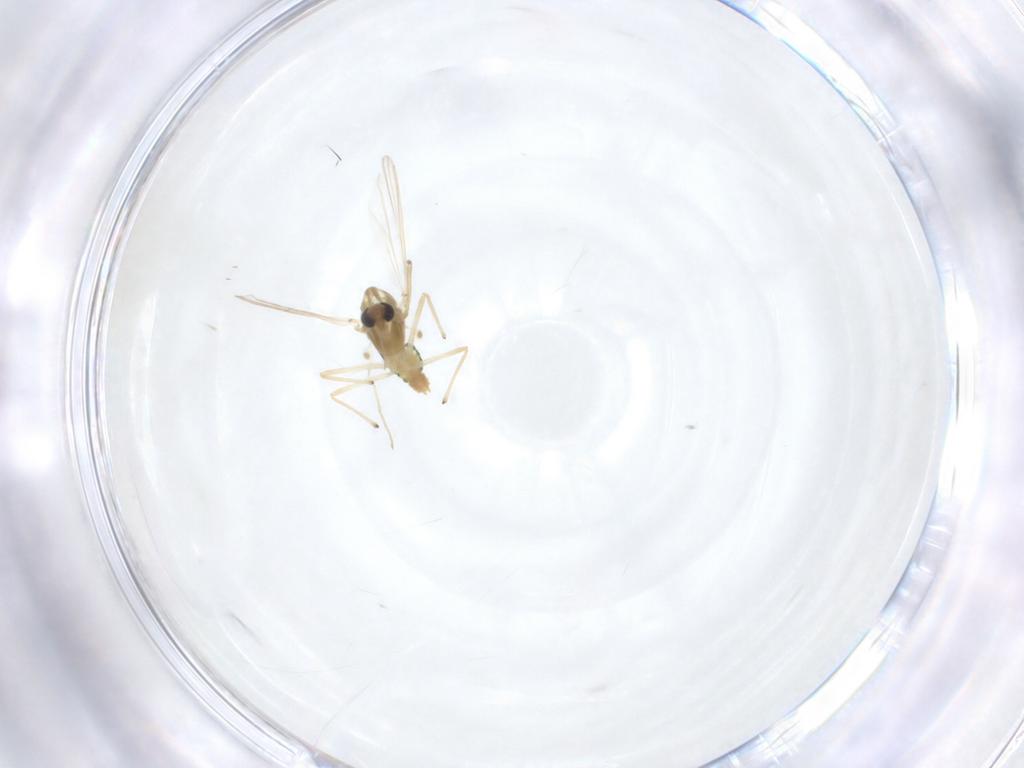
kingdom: Animalia
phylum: Arthropoda
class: Insecta
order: Diptera
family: Chironomidae
